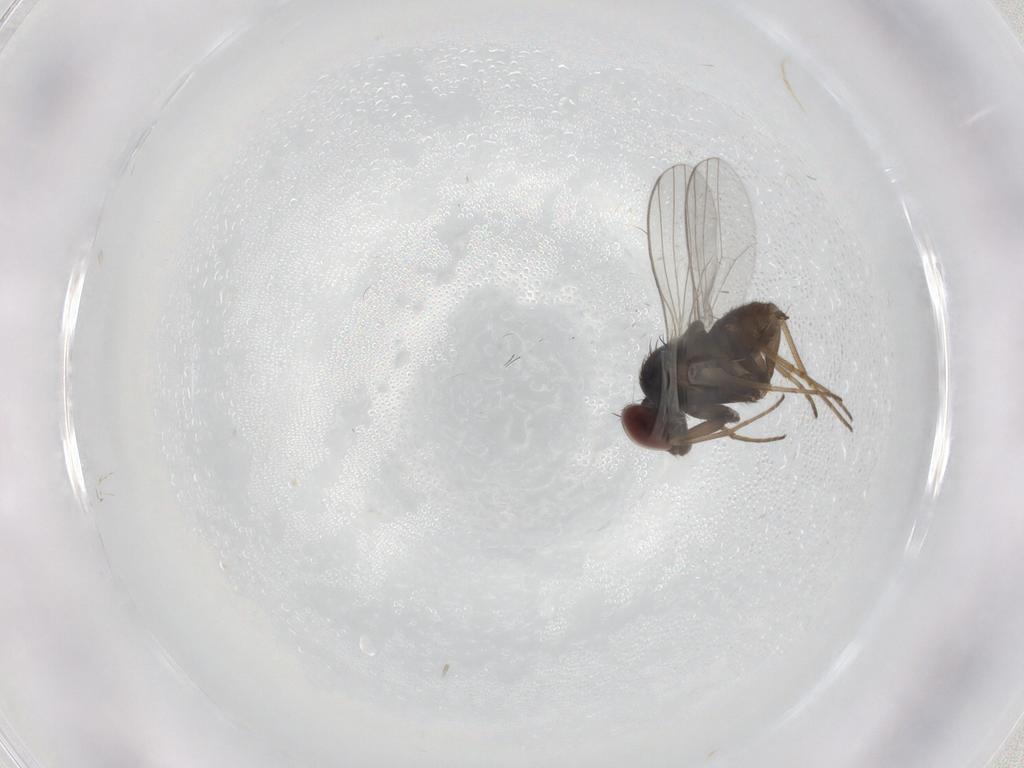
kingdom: Animalia
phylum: Arthropoda
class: Insecta
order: Diptera
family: Dolichopodidae
